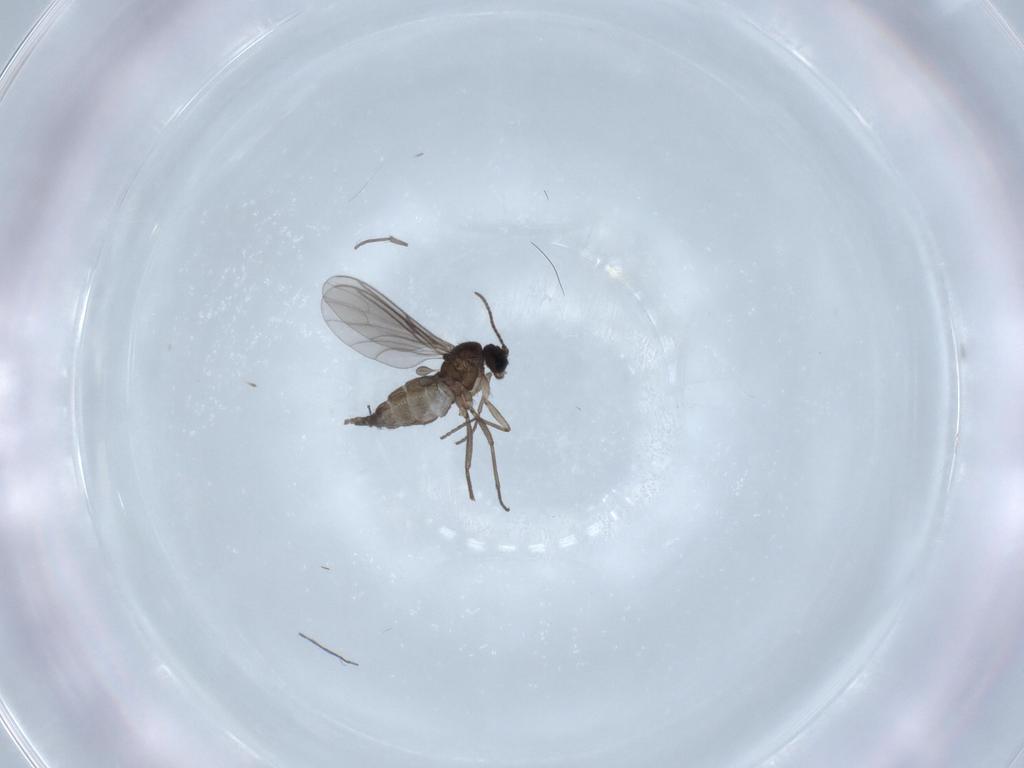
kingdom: Animalia
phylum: Arthropoda
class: Insecta
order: Diptera
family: Sciaridae
